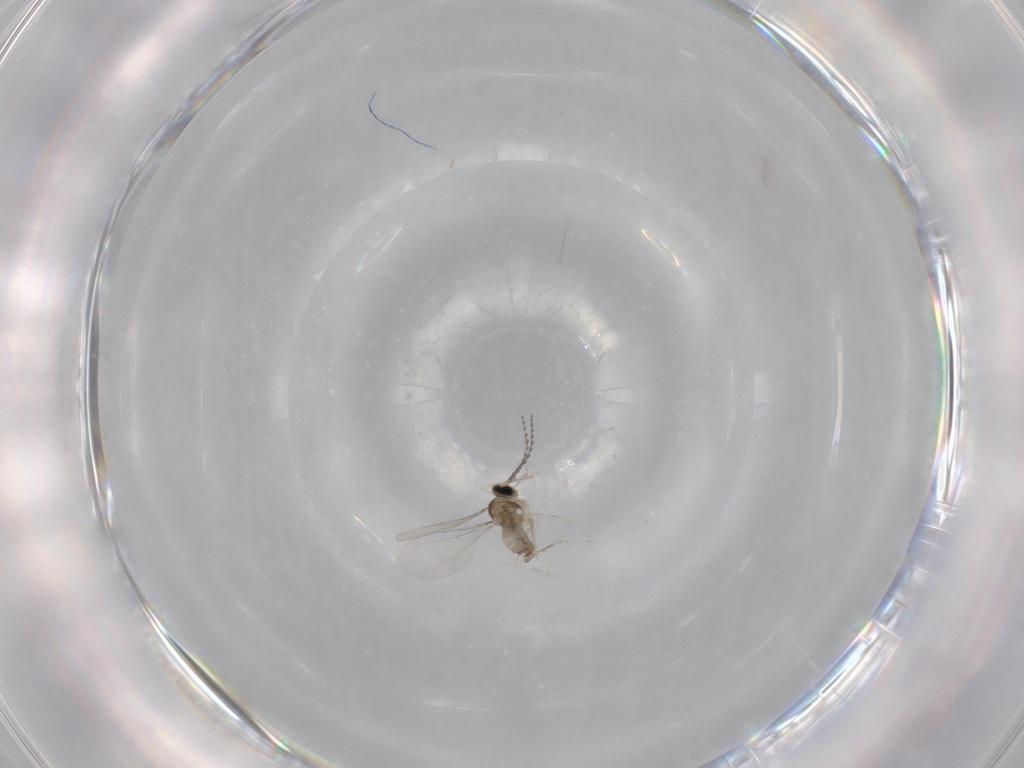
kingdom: Animalia
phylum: Arthropoda
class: Insecta
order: Diptera
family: Cecidomyiidae
